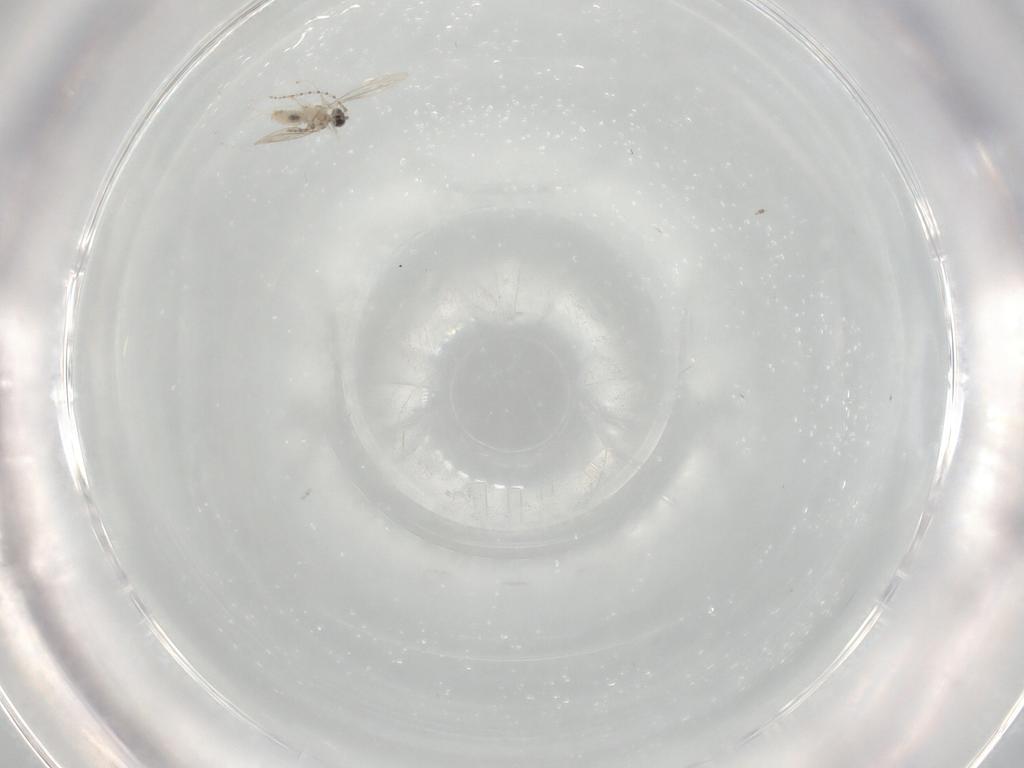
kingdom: Animalia
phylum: Arthropoda
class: Insecta
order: Diptera
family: Cecidomyiidae
